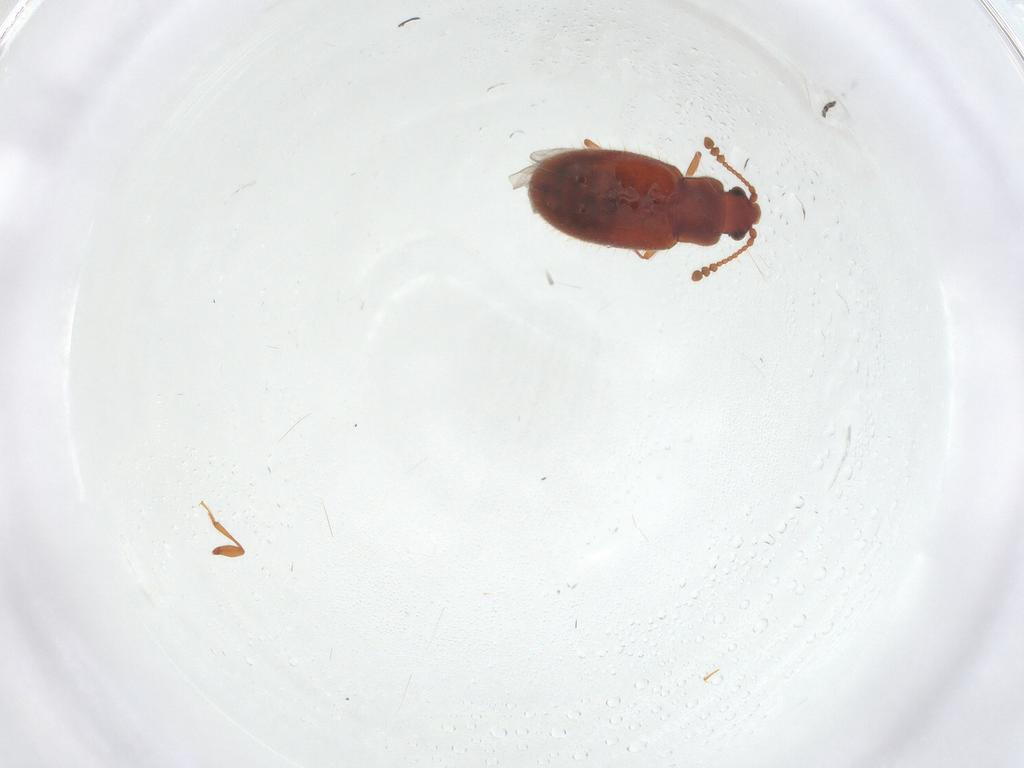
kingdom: Animalia
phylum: Arthropoda
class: Insecta
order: Coleoptera
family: Cryptophagidae
